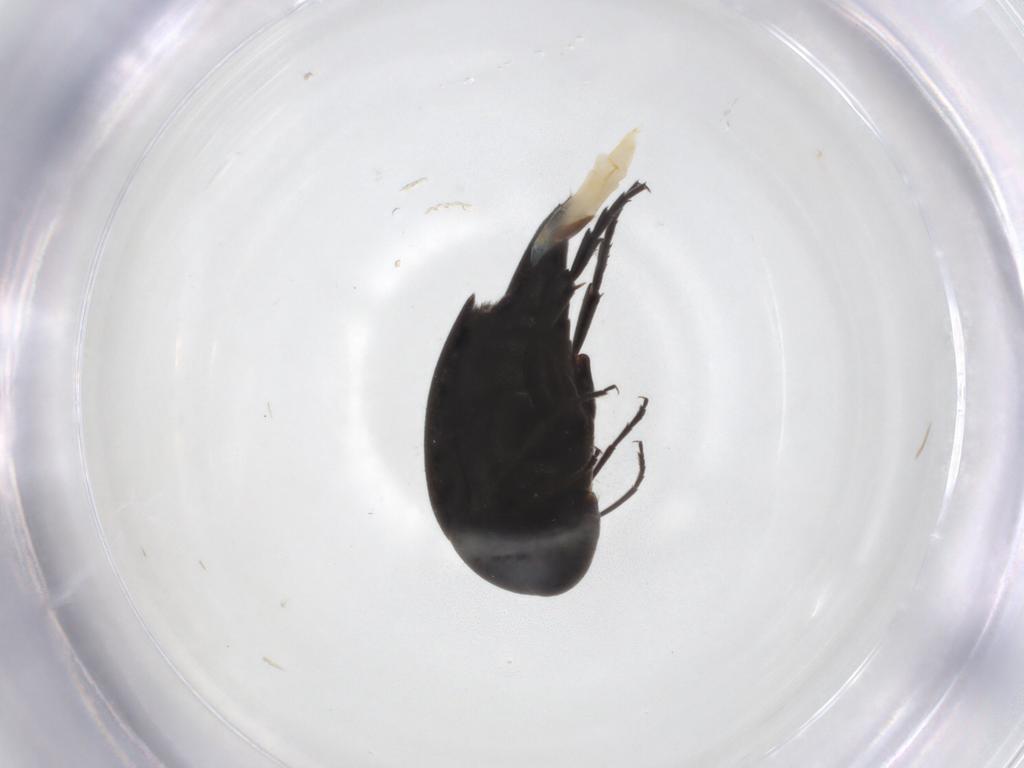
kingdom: Animalia
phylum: Arthropoda
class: Insecta
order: Coleoptera
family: Mordellidae
